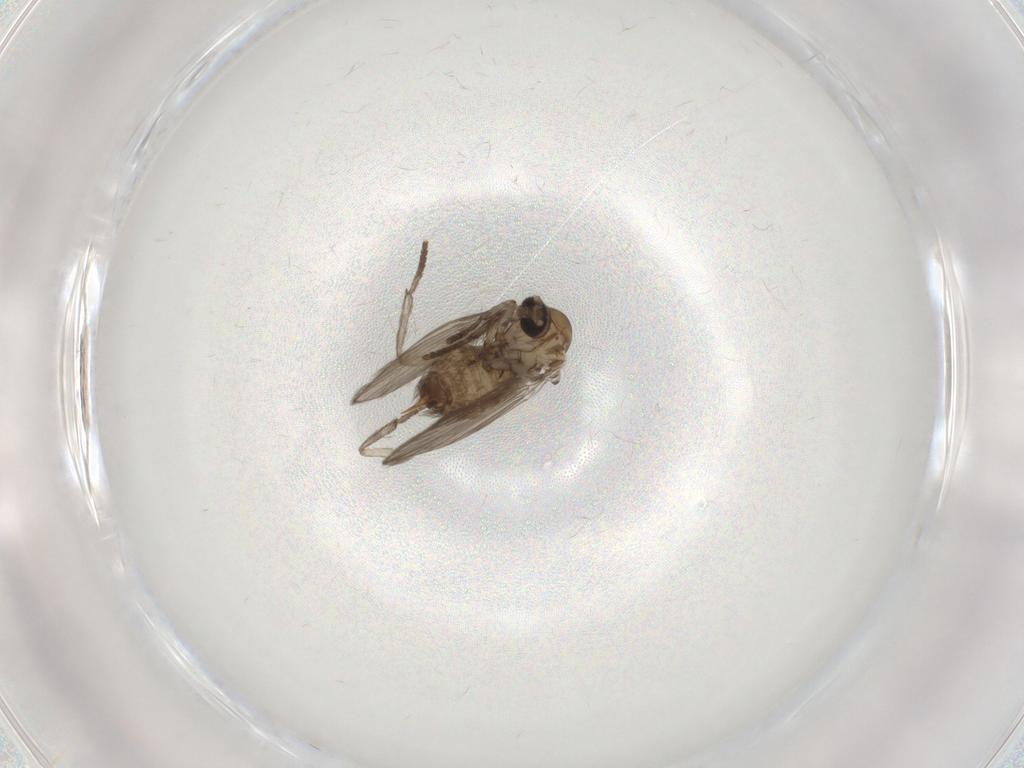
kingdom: Animalia
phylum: Arthropoda
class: Insecta
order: Diptera
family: Psychodidae
